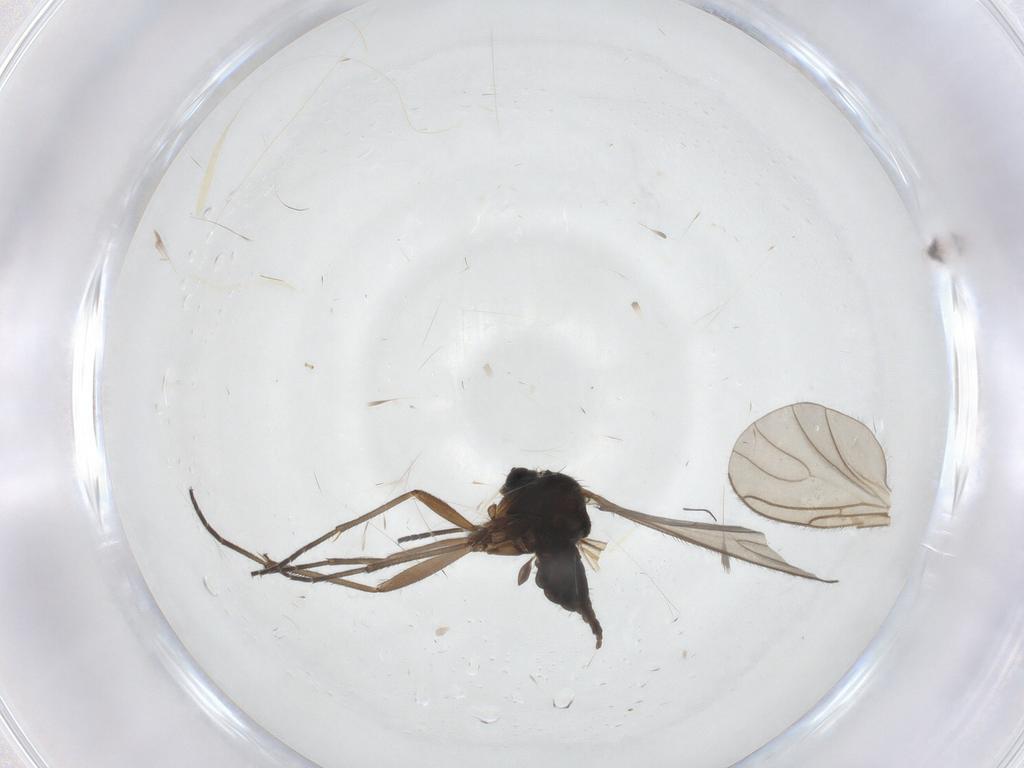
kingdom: Animalia
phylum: Arthropoda
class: Insecta
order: Diptera
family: Sciaridae
